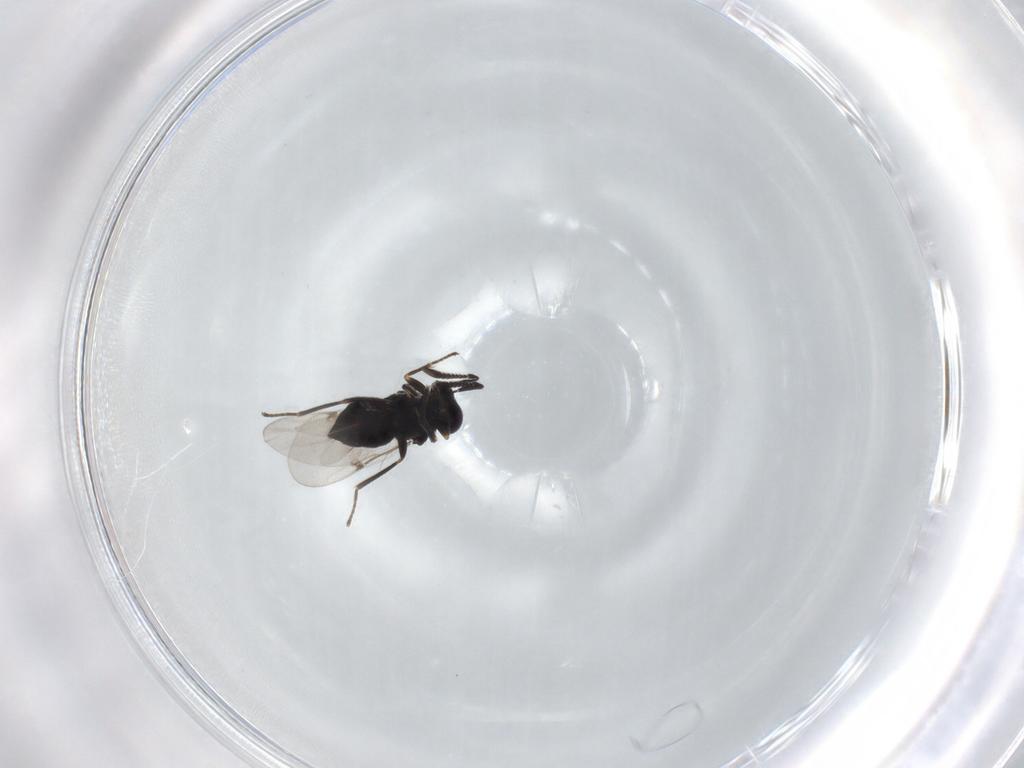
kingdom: Animalia
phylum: Arthropoda
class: Insecta
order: Hymenoptera
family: Encyrtidae
